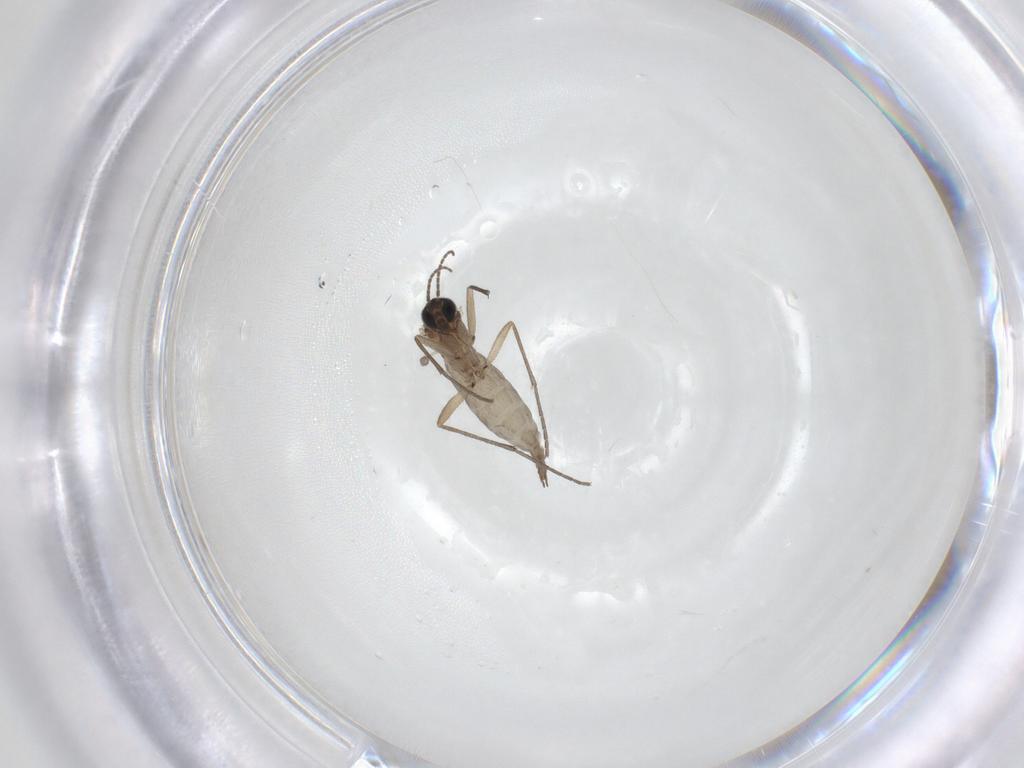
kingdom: Animalia
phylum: Arthropoda
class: Insecta
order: Diptera
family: Sciaridae
